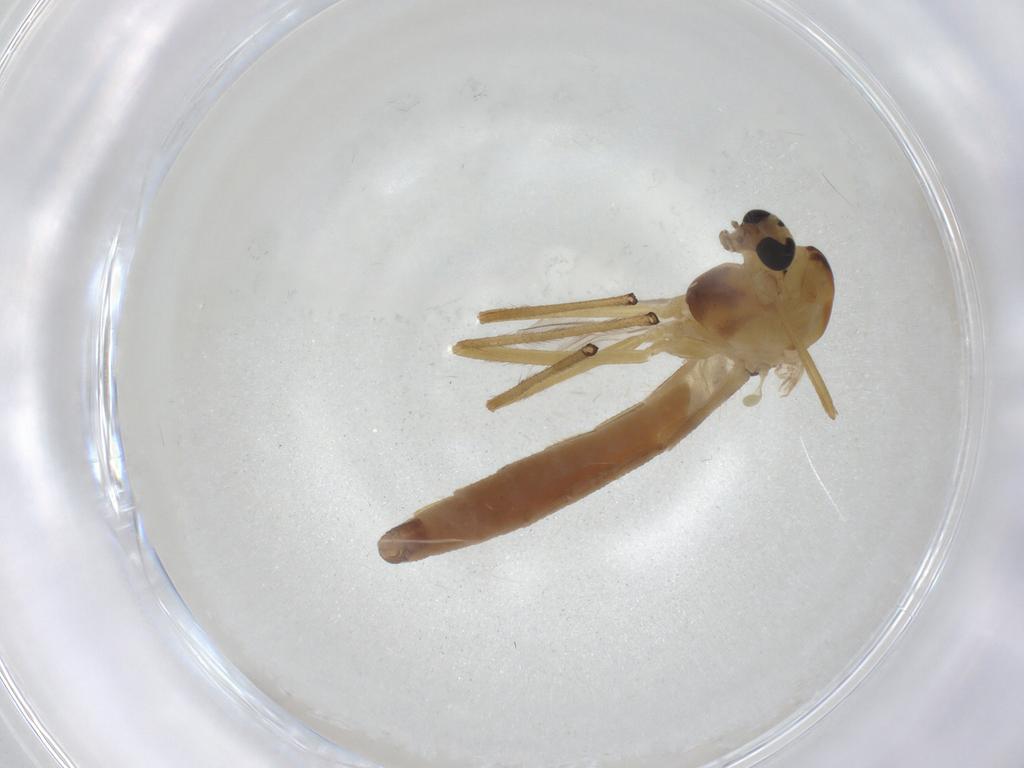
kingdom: Animalia
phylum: Arthropoda
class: Insecta
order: Diptera
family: Chironomidae
